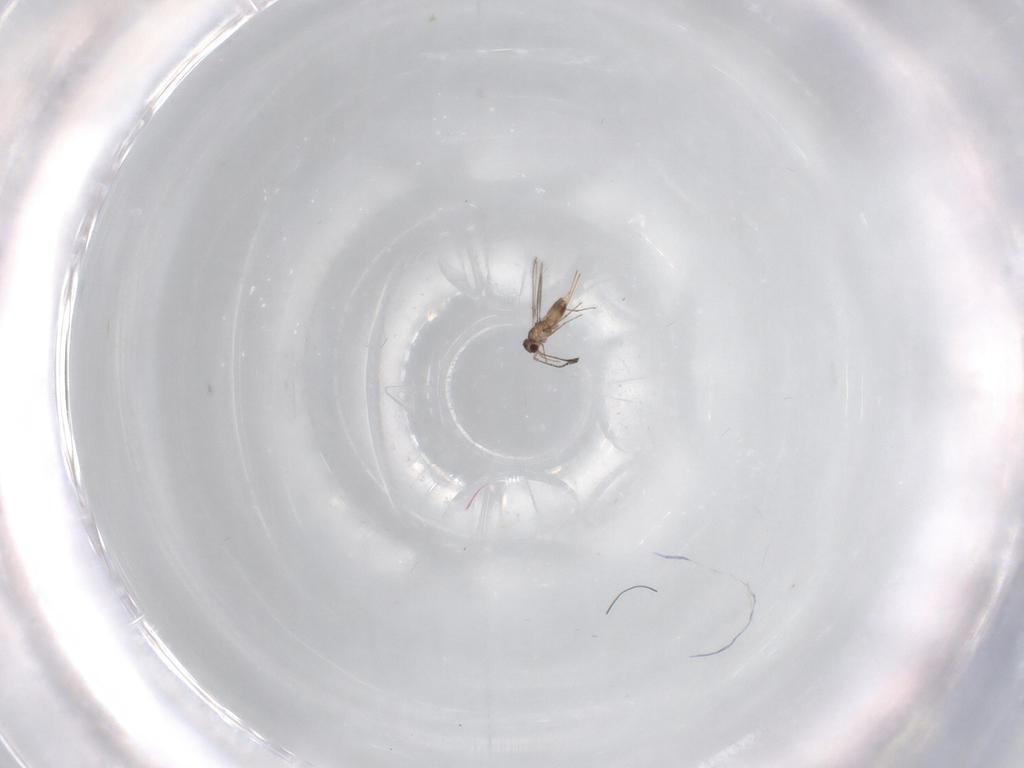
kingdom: Animalia
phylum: Arthropoda
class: Insecta
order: Hymenoptera
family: Mymaridae
